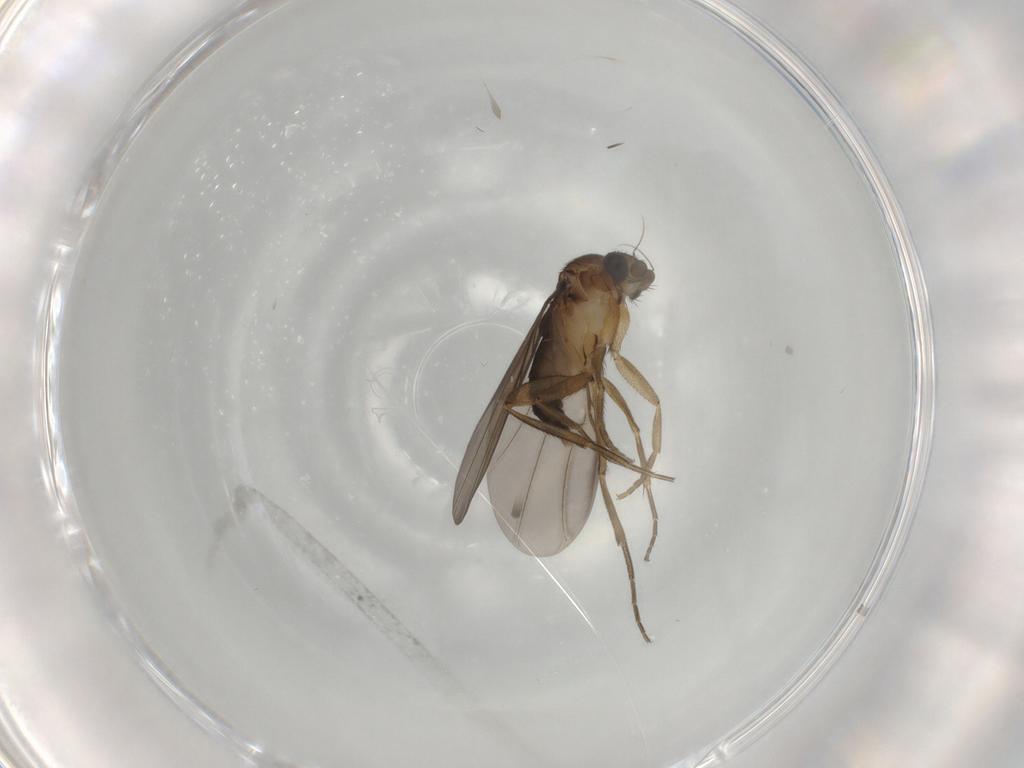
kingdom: Animalia
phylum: Arthropoda
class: Insecta
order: Diptera
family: Phoridae
